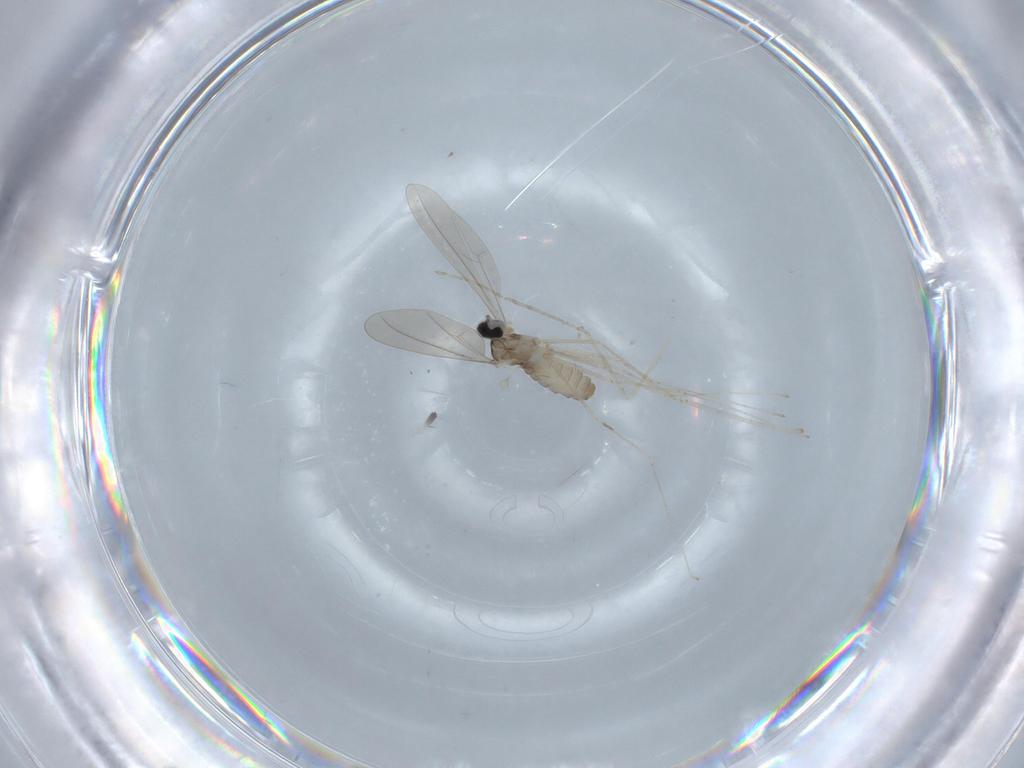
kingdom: Animalia
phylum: Arthropoda
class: Insecta
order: Diptera
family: Cecidomyiidae
